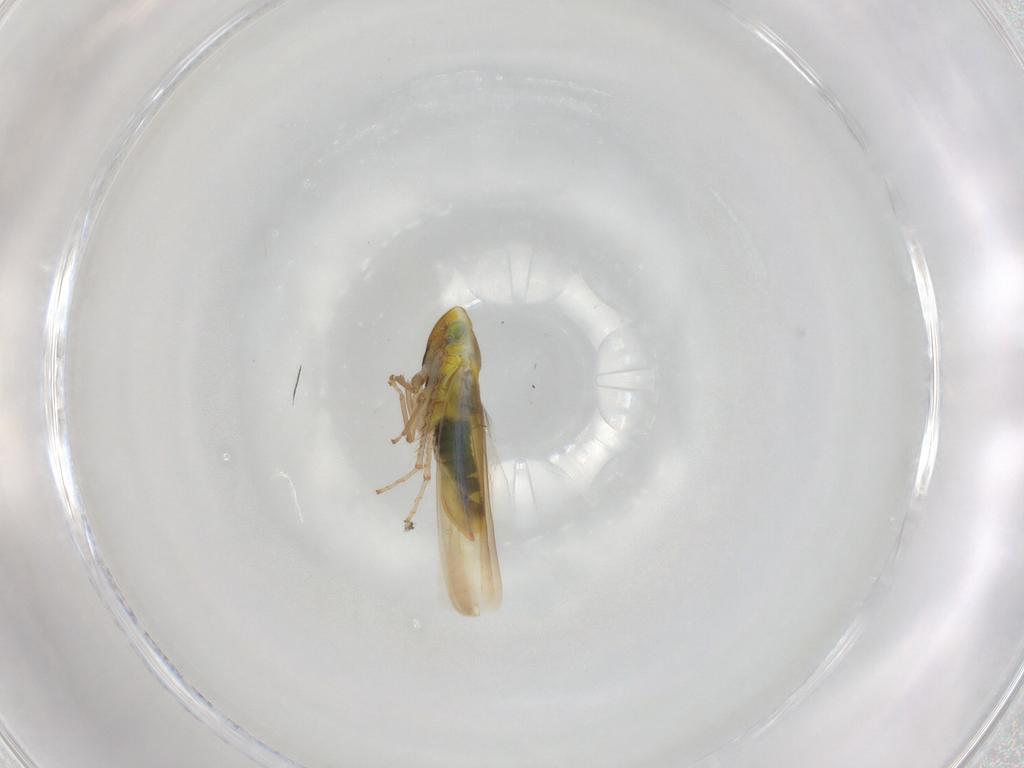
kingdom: Animalia
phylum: Arthropoda
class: Insecta
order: Hemiptera
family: Cicadellidae
